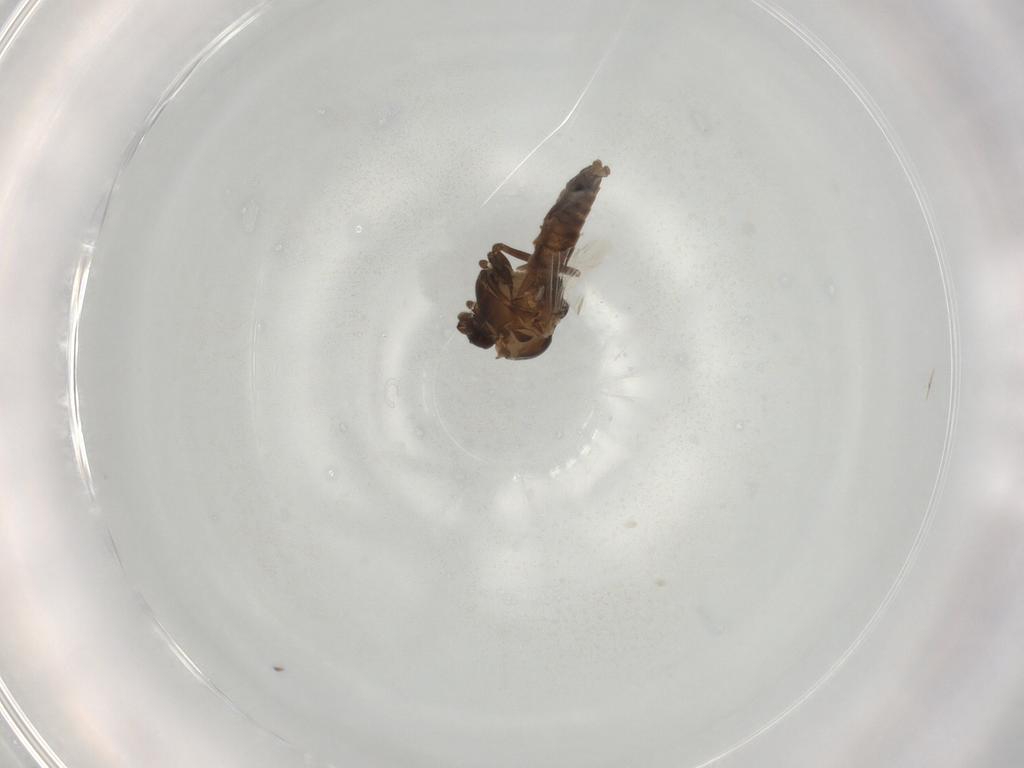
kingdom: Animalia
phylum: Arthropoda
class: Insecta
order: Diptera
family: Chironomidae
